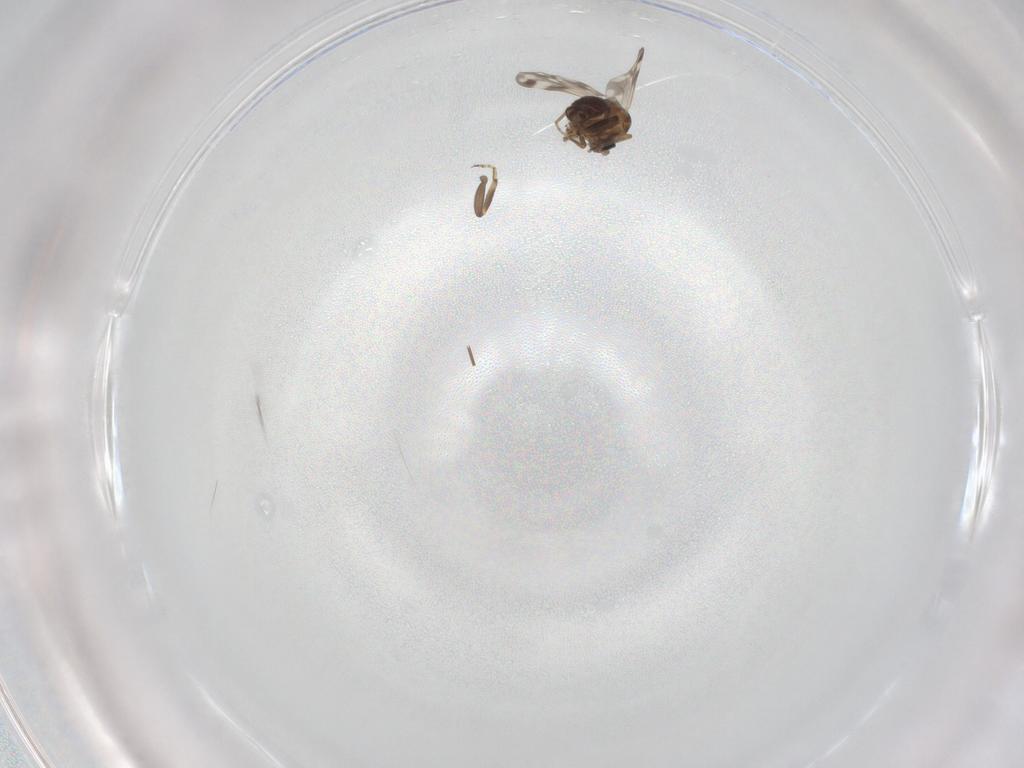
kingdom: Animalia
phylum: Arthropoda
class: Insecta
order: Diptera
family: Ceratopogonidae
